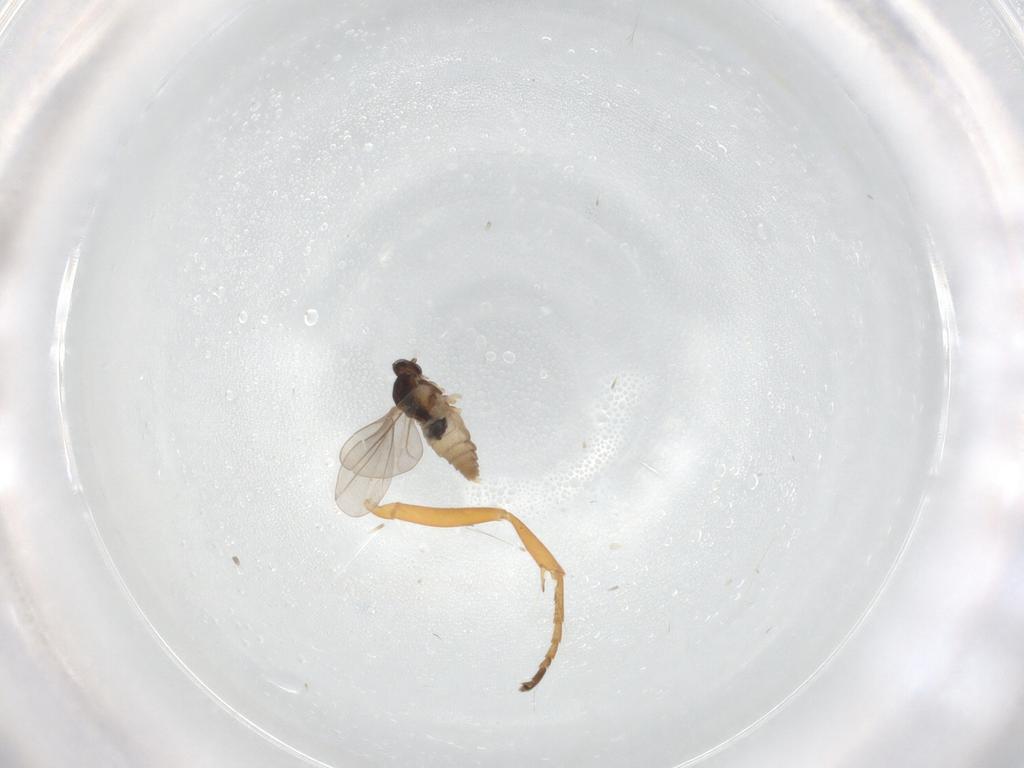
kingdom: Animalia
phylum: Arthropoda
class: Insecta
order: Diptera
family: Cecidomyiidae
